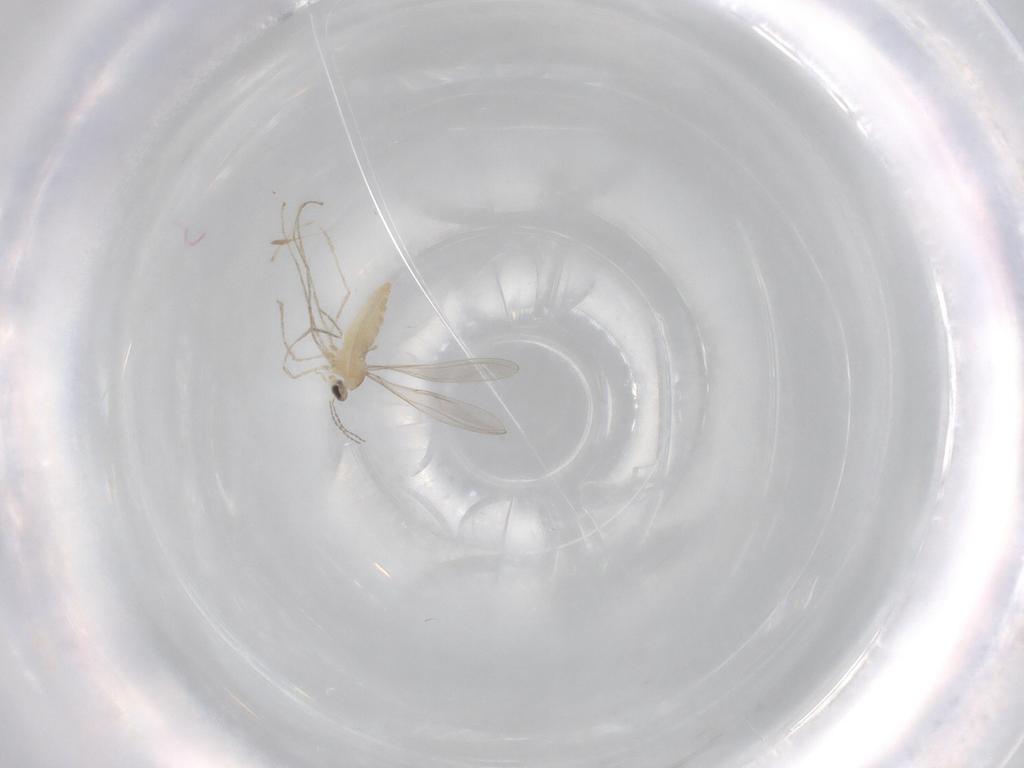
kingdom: Animalia
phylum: Arthropoda
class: Insecta
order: Diptera
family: Cecidomyiidae
